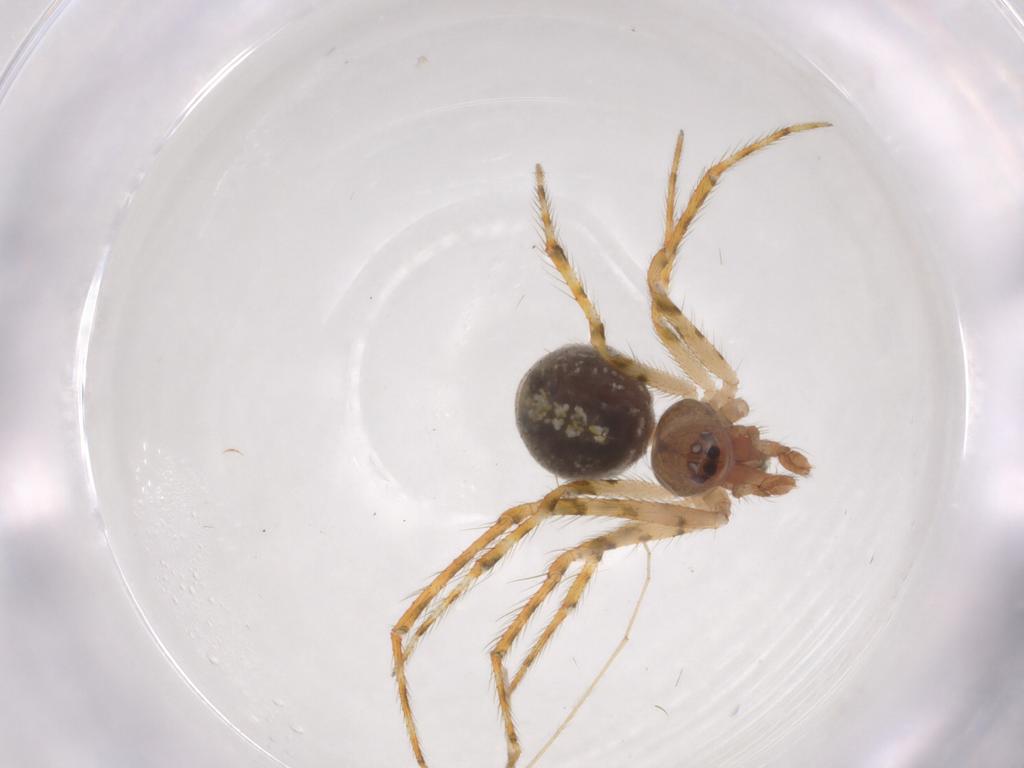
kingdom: Animalia
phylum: Arthropoda
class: Arachnida
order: Araneae
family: Theridiidae
